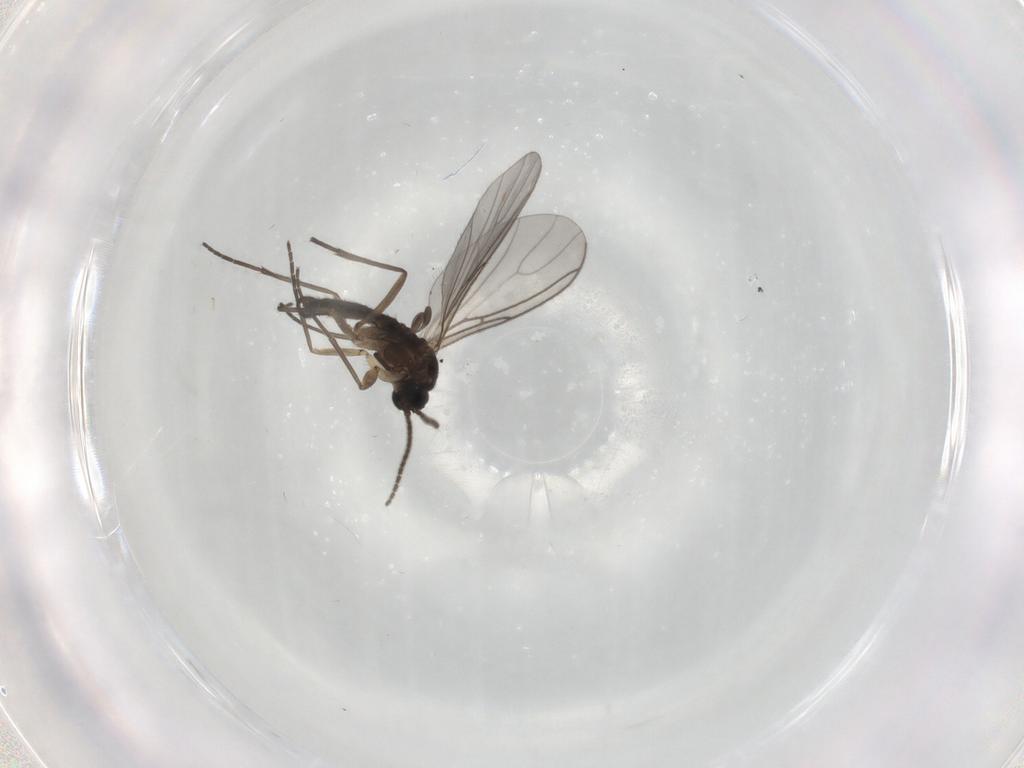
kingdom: Animalia
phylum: Arthropoda
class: Insecta
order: Diptera
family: Sciaridae
